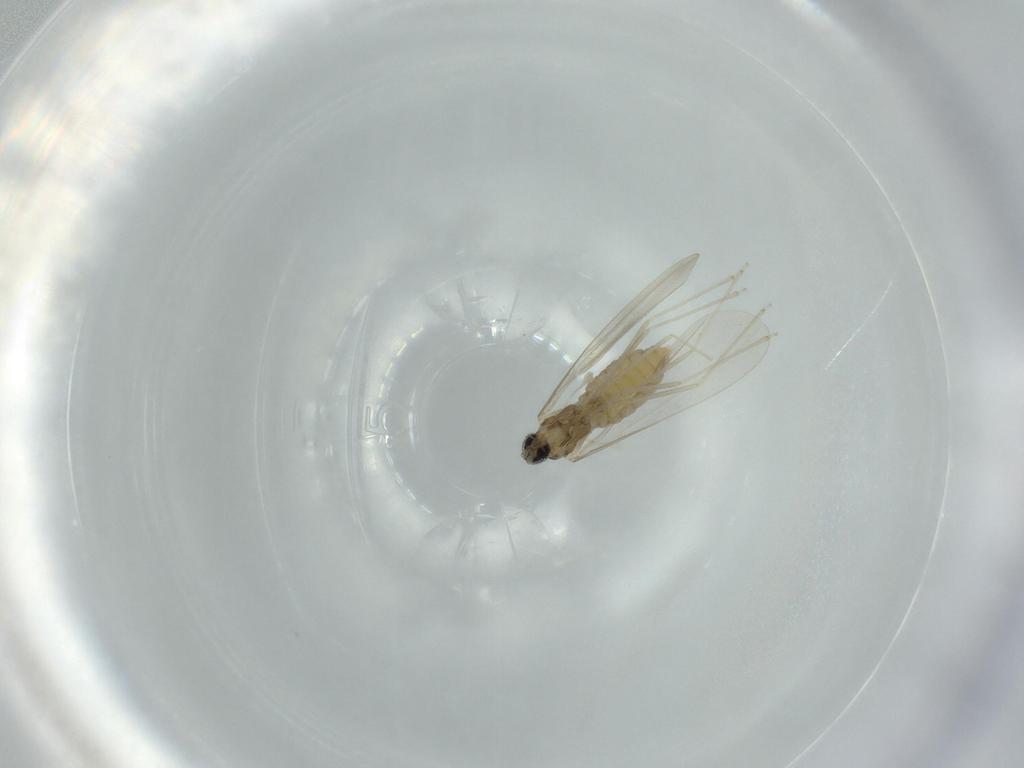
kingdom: Animalia
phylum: Arthropoda
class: Insecta
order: Diptera
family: Cecidomyiidae
